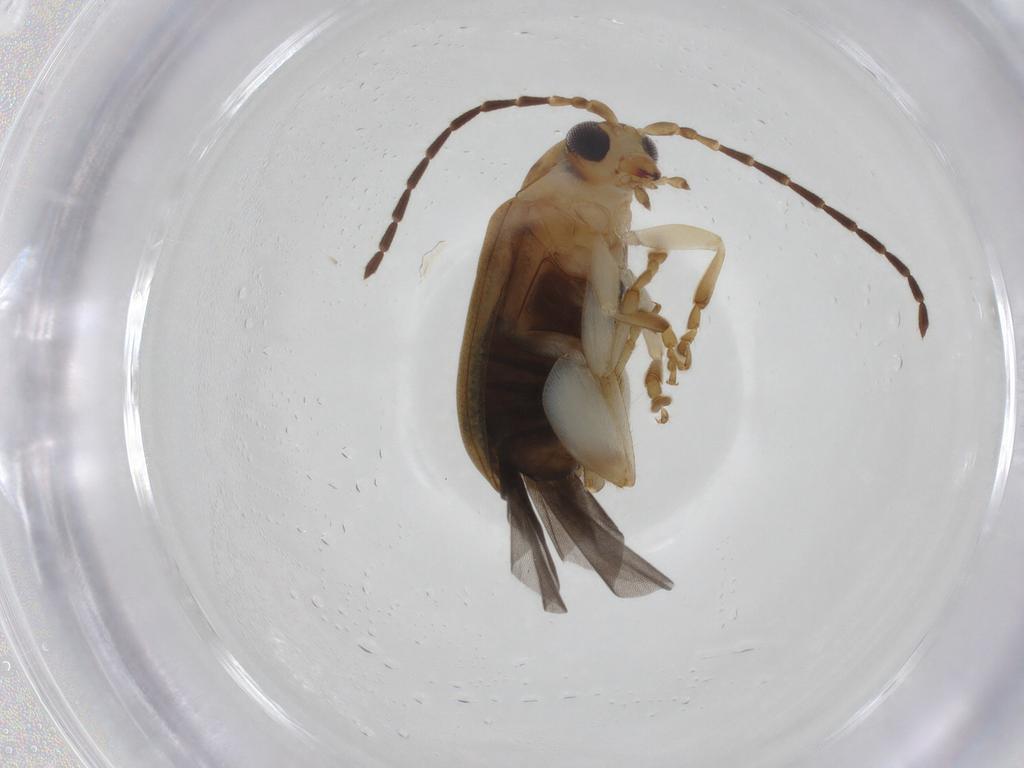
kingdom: Animalia
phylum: Arthropoda
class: Insecta
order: Coleoptera
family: Chrysomelidae
